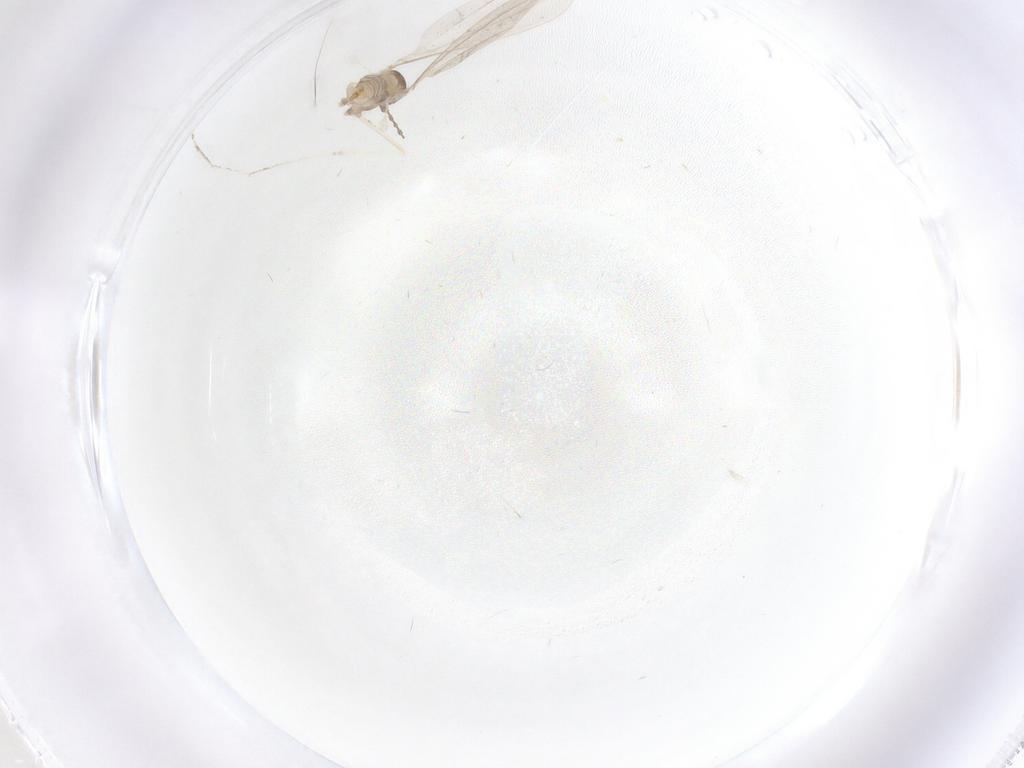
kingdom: Animalia
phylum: Arthropoda
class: Insecta
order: Diptera
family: Cecidomyiidae
